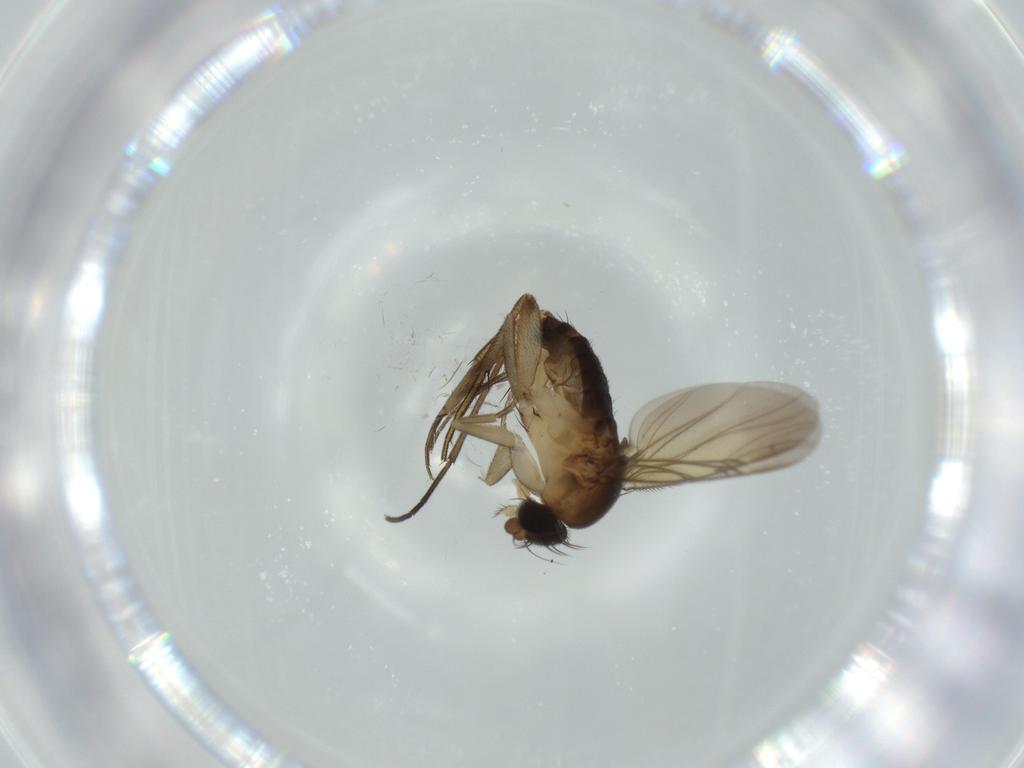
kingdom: Animalia
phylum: Arthropoda
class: Insecta
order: Diptera
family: Phoridae
